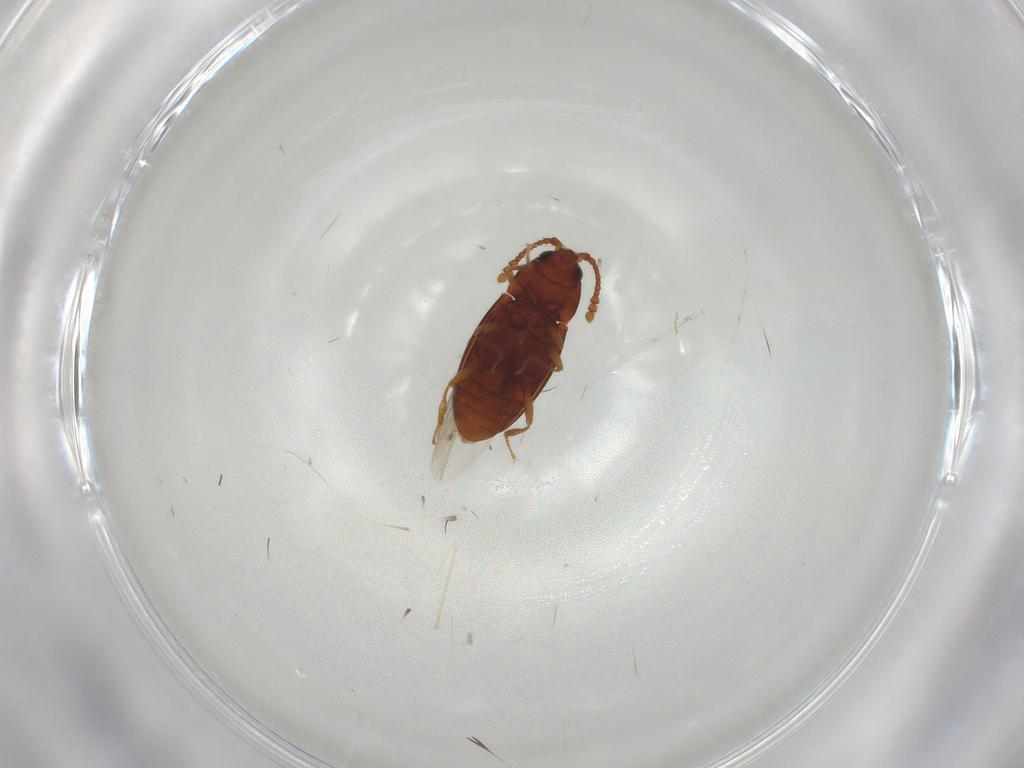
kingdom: Animalia
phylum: Arthropoda
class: Insecta
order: Coleoptera
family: Cryptophagidae
